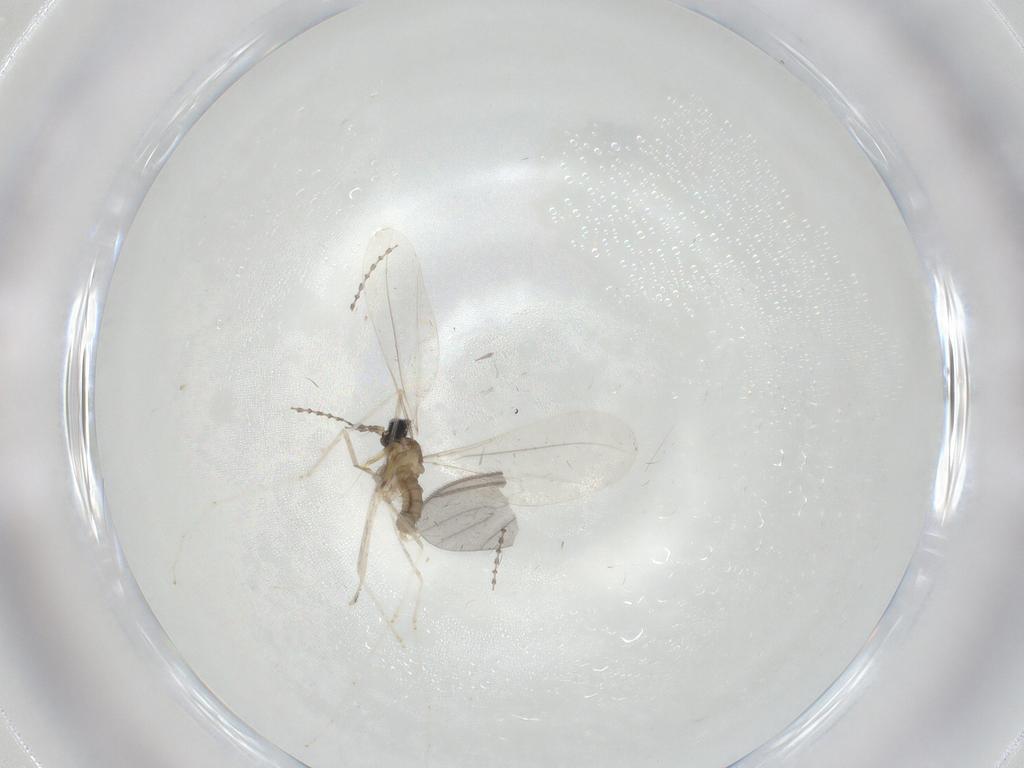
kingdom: Animalia
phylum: Arthropoda
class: Insecta
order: Diptera
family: Cecidomyiidae
